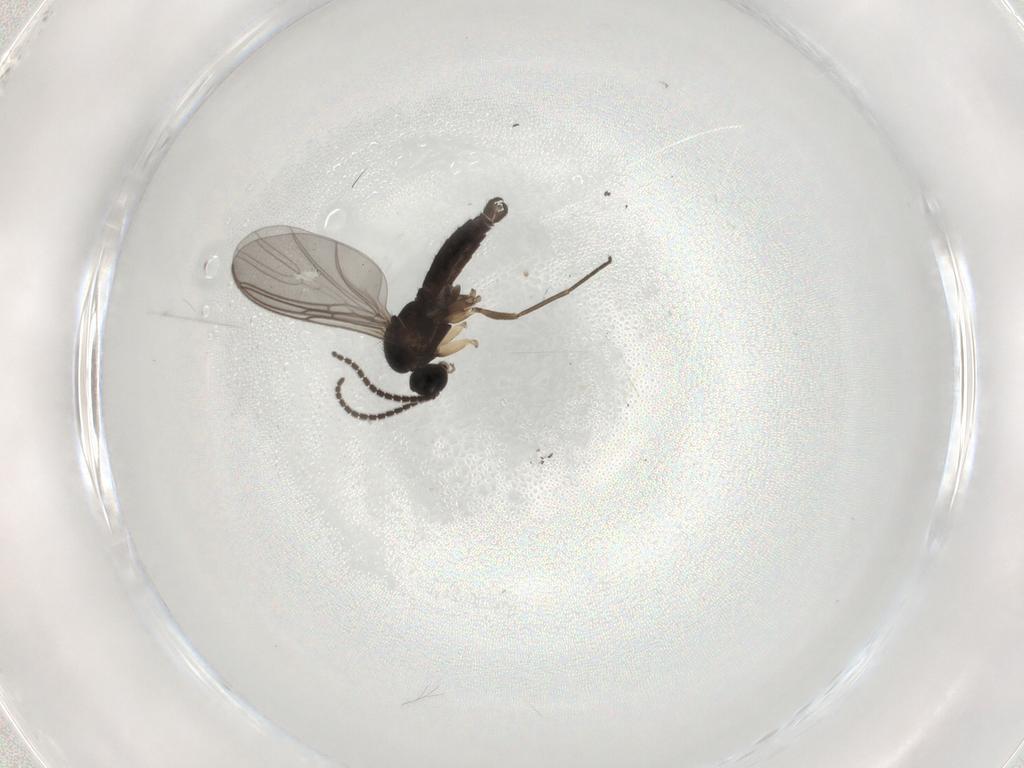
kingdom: Animalia
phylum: Arthropoda
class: Insecta
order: Diptera
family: Sciaridae
